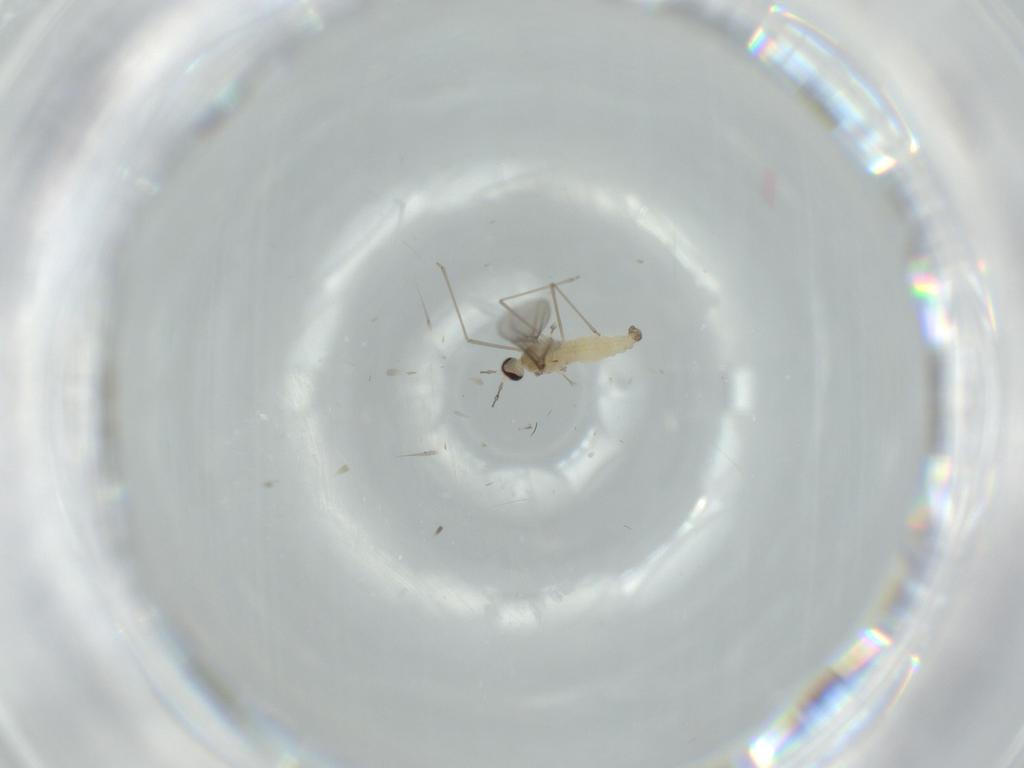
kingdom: Animalia
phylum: Arthropoda
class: Insecta
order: Diptera
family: Cecidomyiidae
